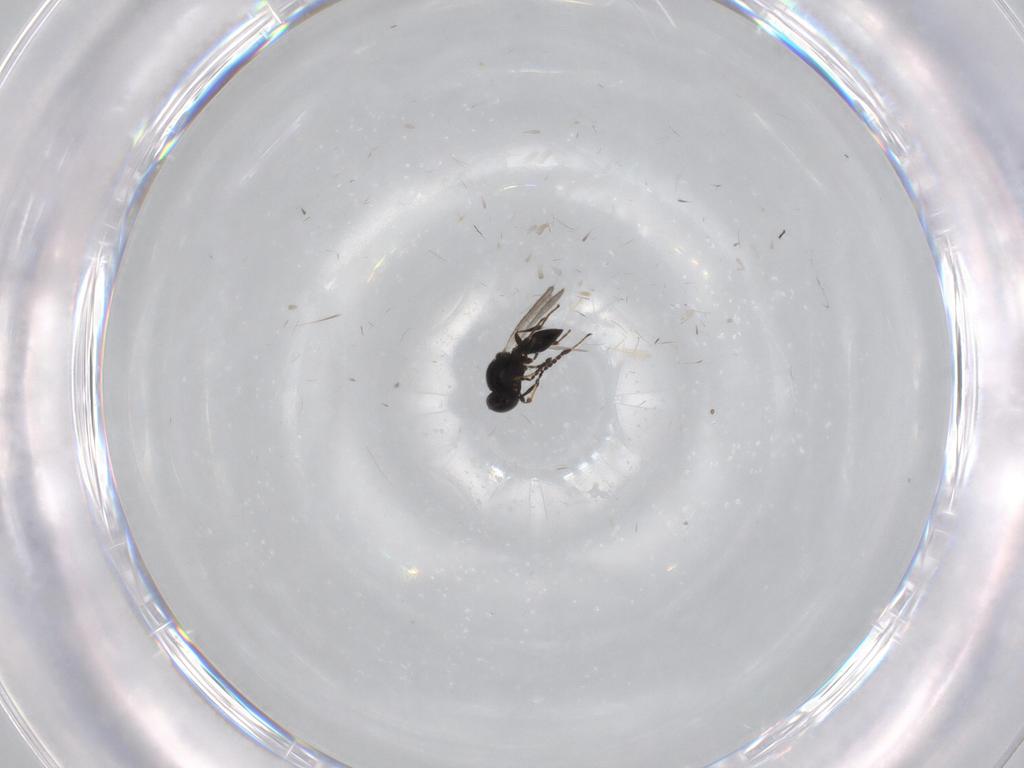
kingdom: Animalia
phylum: Arthropoda
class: Insecta
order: Hymenoptera
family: Platygastridae
